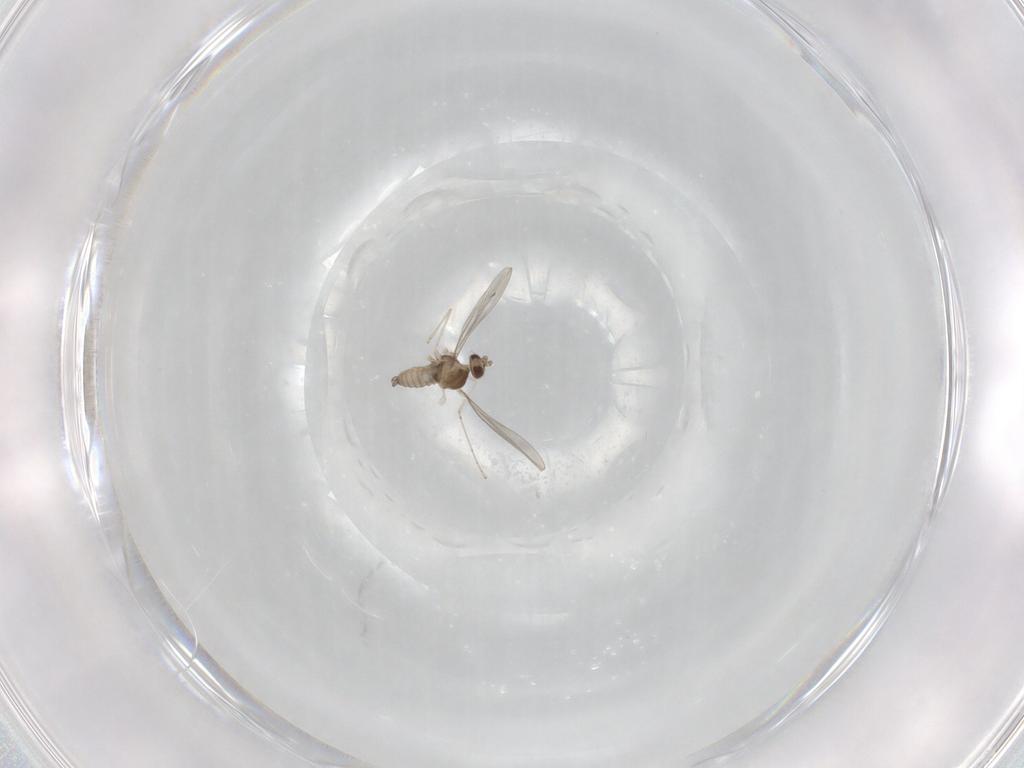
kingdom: Animalia
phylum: Arthropoda
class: Insecta
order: Diptera
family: Cecidomyiidae
